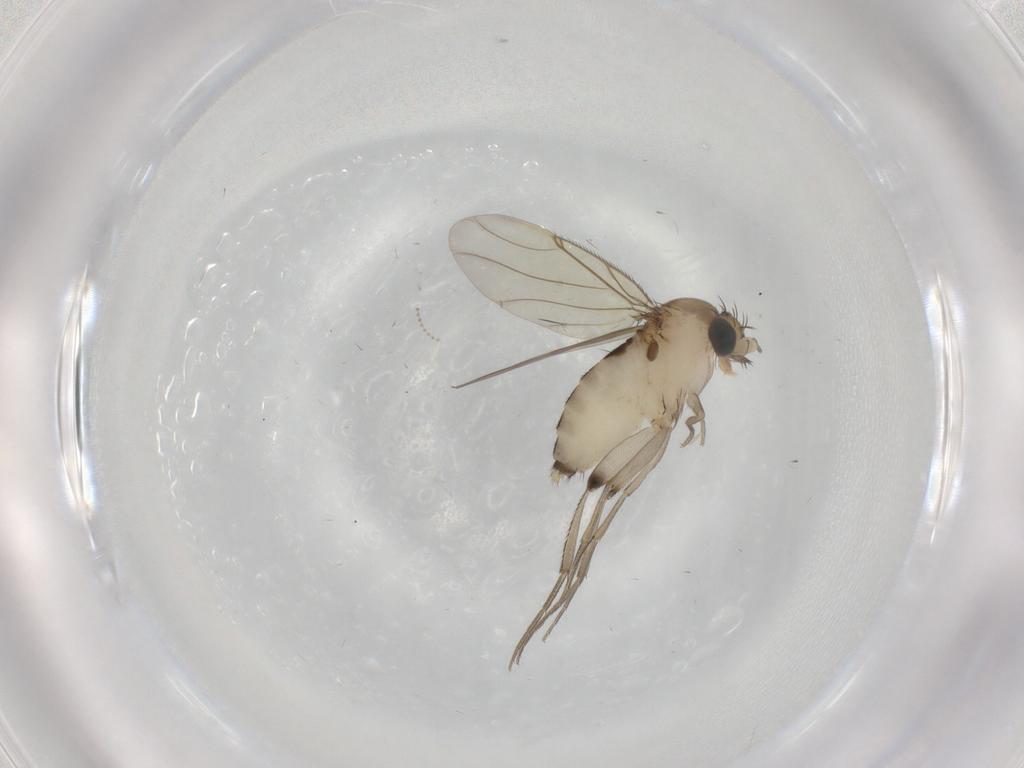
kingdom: Animalia
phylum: Arthropoda
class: Insecta
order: Diptera
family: Phoridae
